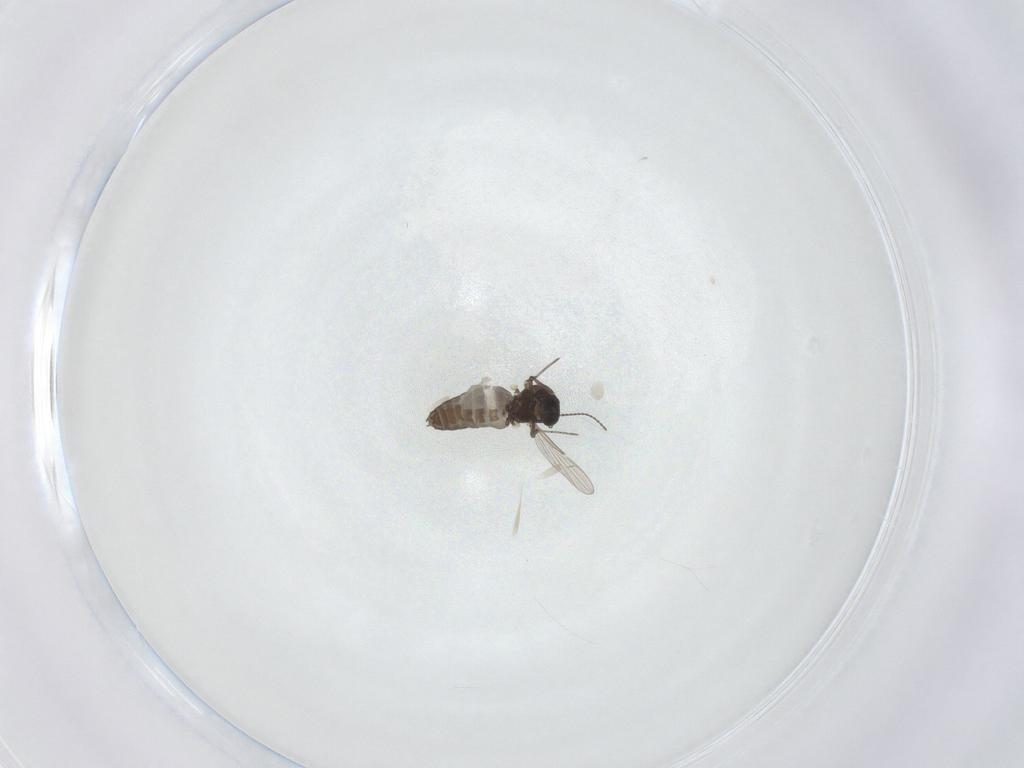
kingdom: Animalia
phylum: Arthropoda
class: Insecta
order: Diptera
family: Ceratopogonidae
